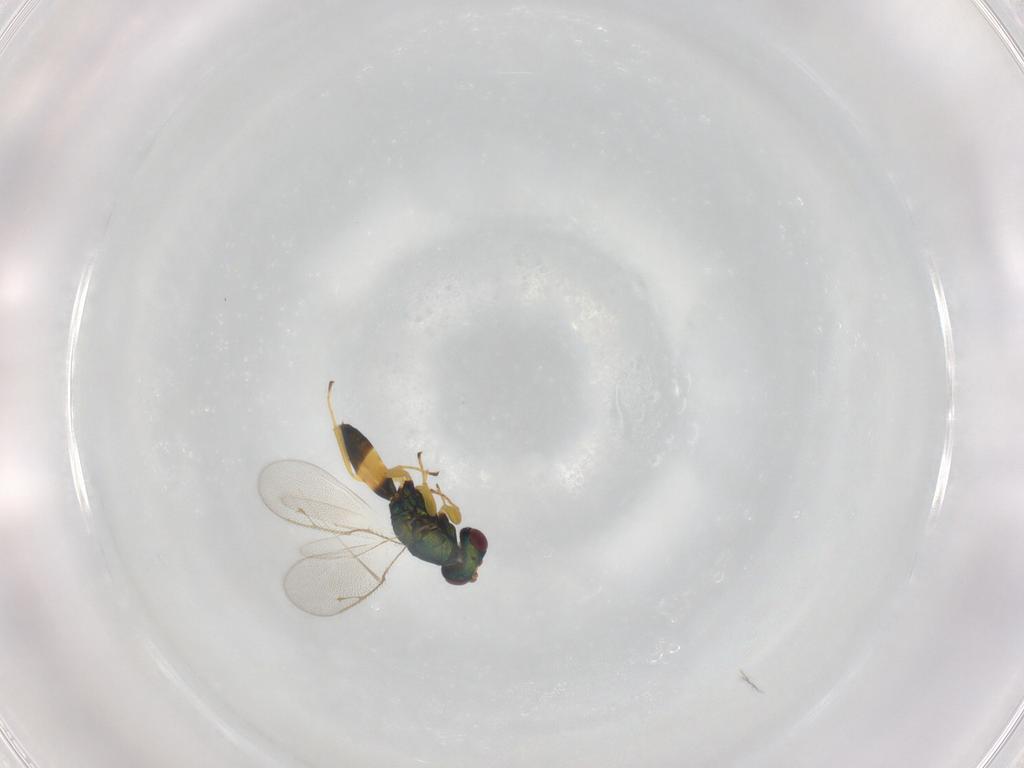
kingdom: Animalia
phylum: Arthropoda
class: Insecta
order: Hymenoptera
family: Pteromalidae
